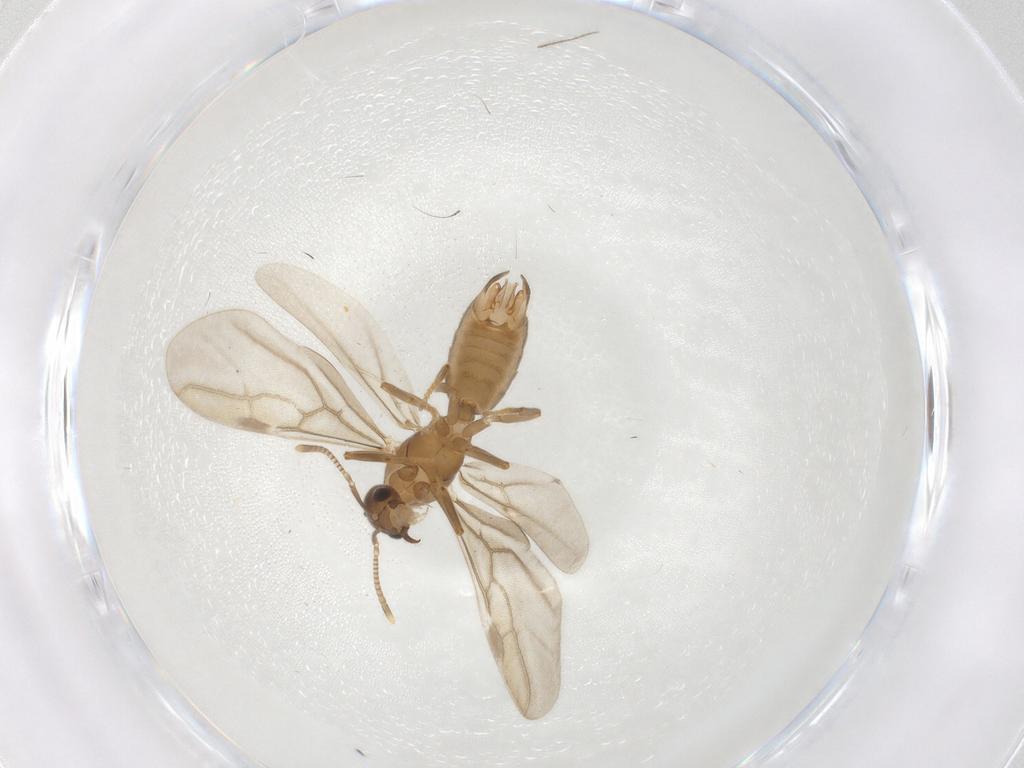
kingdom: Animalia
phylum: Arthropoda
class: Insecta
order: Hymenoptera
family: Formicidae
